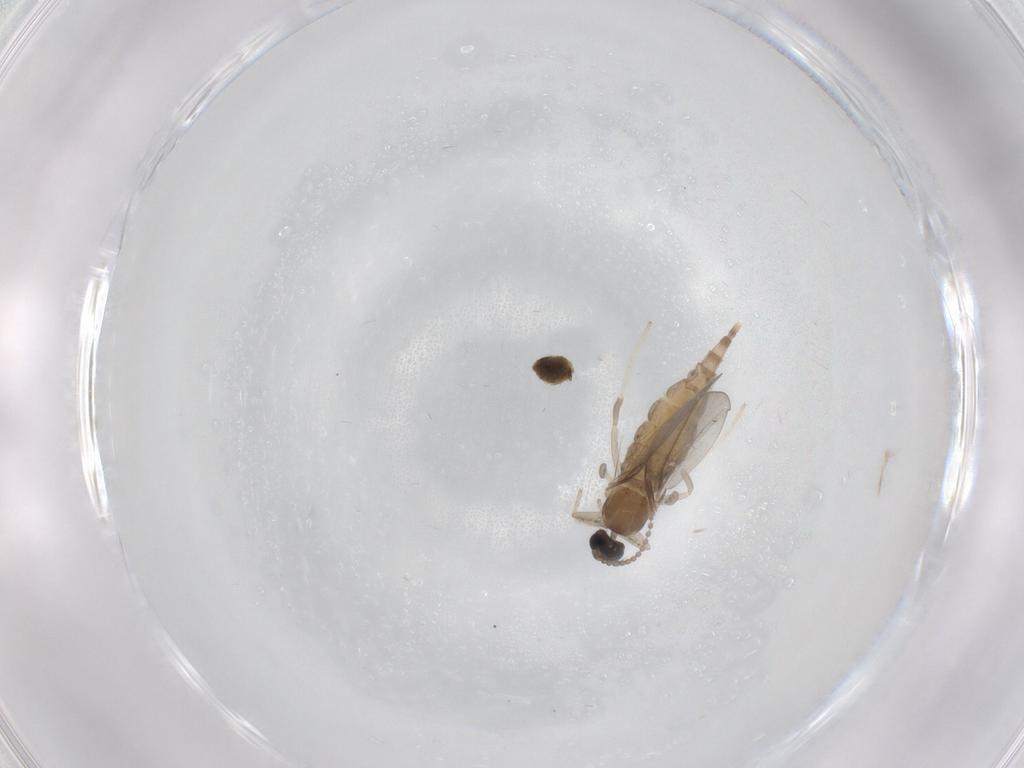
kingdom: Animalia
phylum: Arthropoda
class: Insecta
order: Diptera
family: Cecidomyiidae
